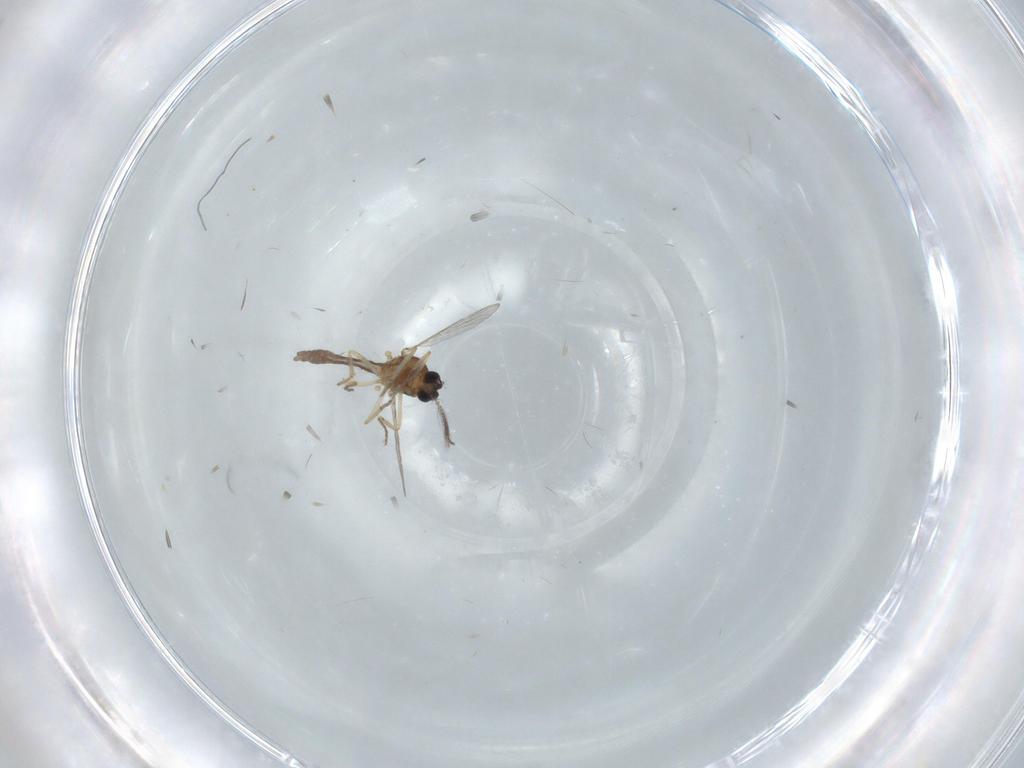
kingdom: Animalia
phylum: Arthropoda
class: Insecta
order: Diptera
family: Ceratopogonidae
